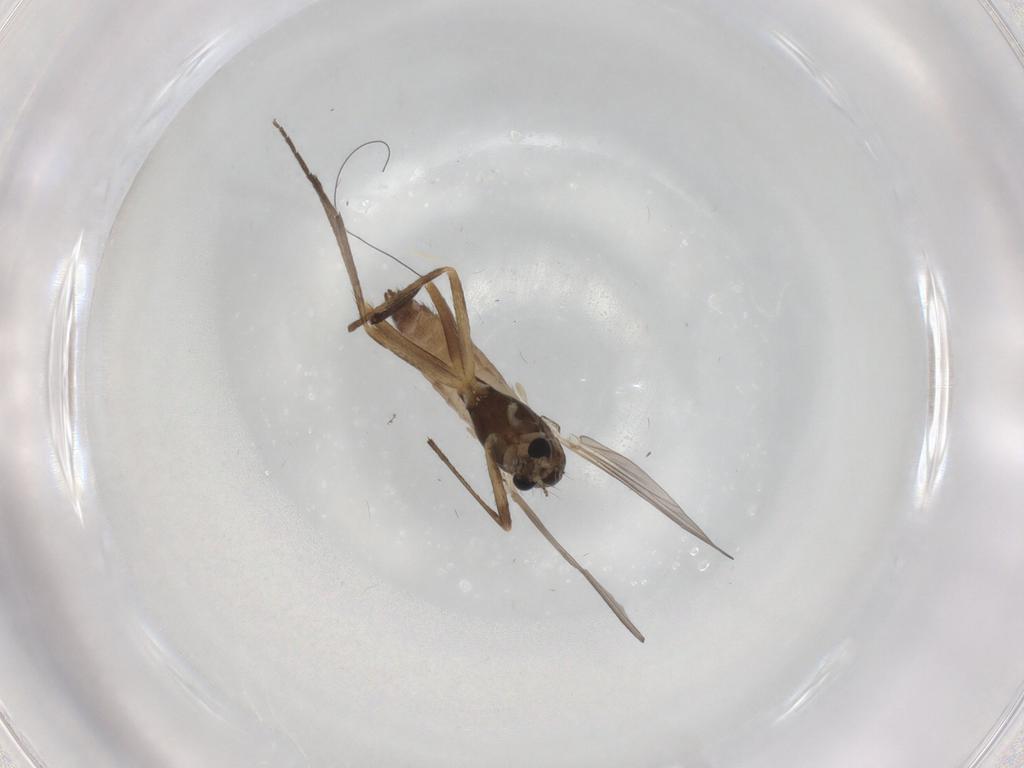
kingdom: Animalia
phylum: Arthropoda
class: Insecta
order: Diptera
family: Chironomidae
